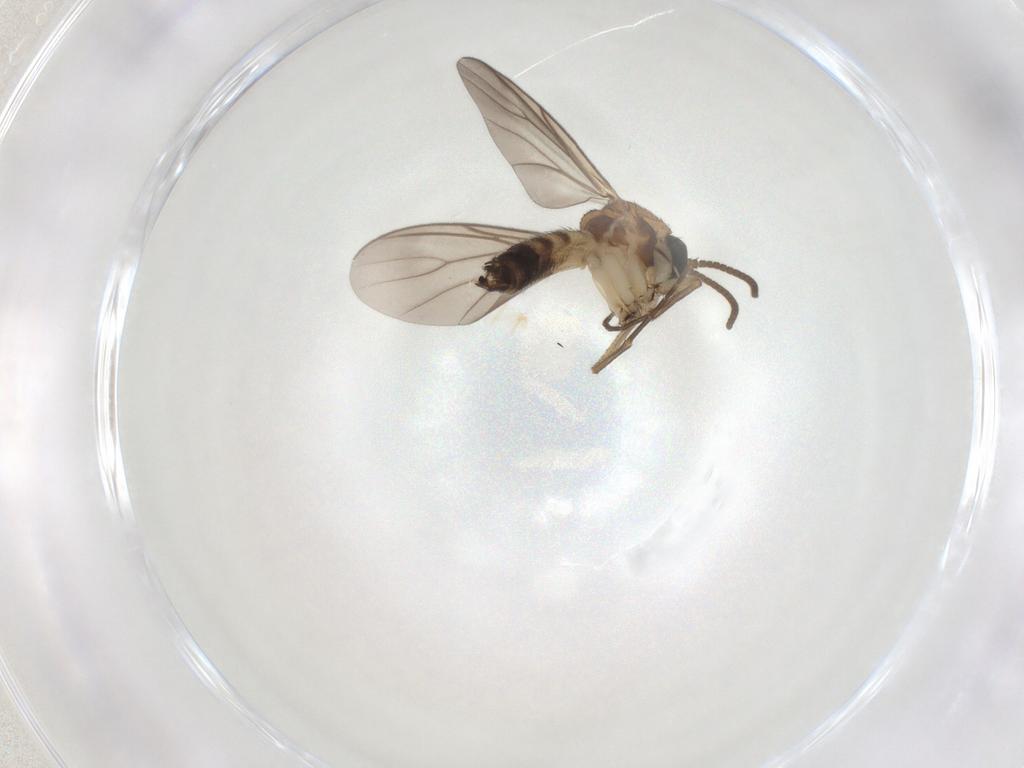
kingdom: Animalia
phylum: Arthropoda
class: Insecta
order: Diptera
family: Mycetophilidae
